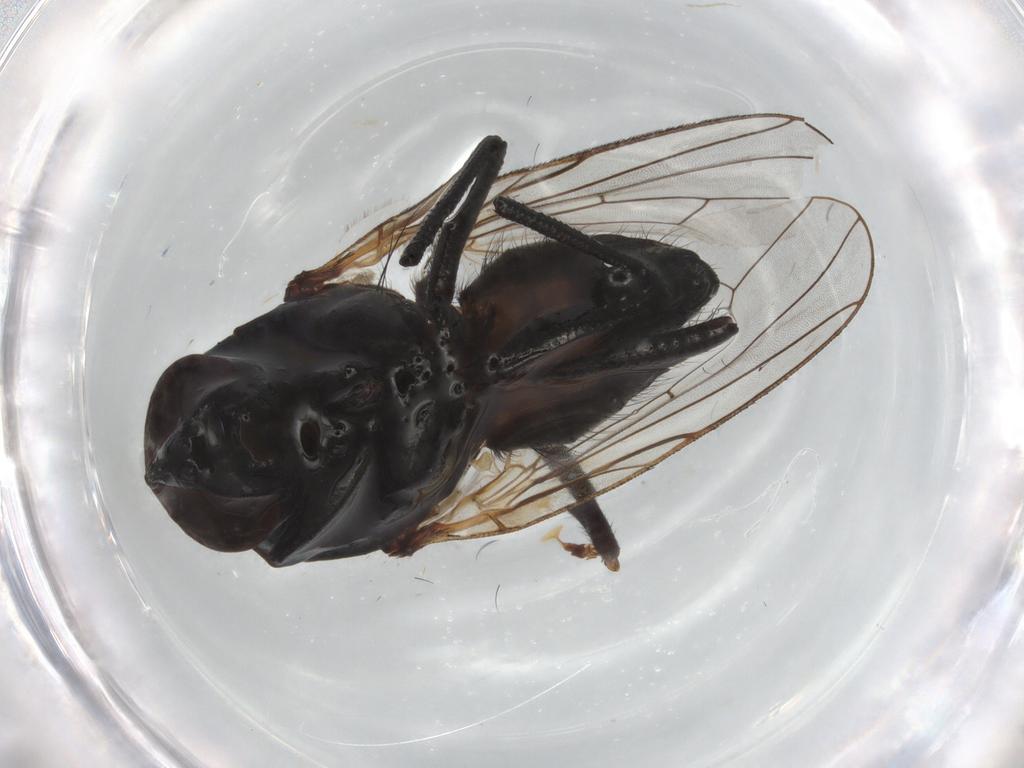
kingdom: Animalia
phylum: Arthropoda
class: Insecta
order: Diptera
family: Anthomyiidae
